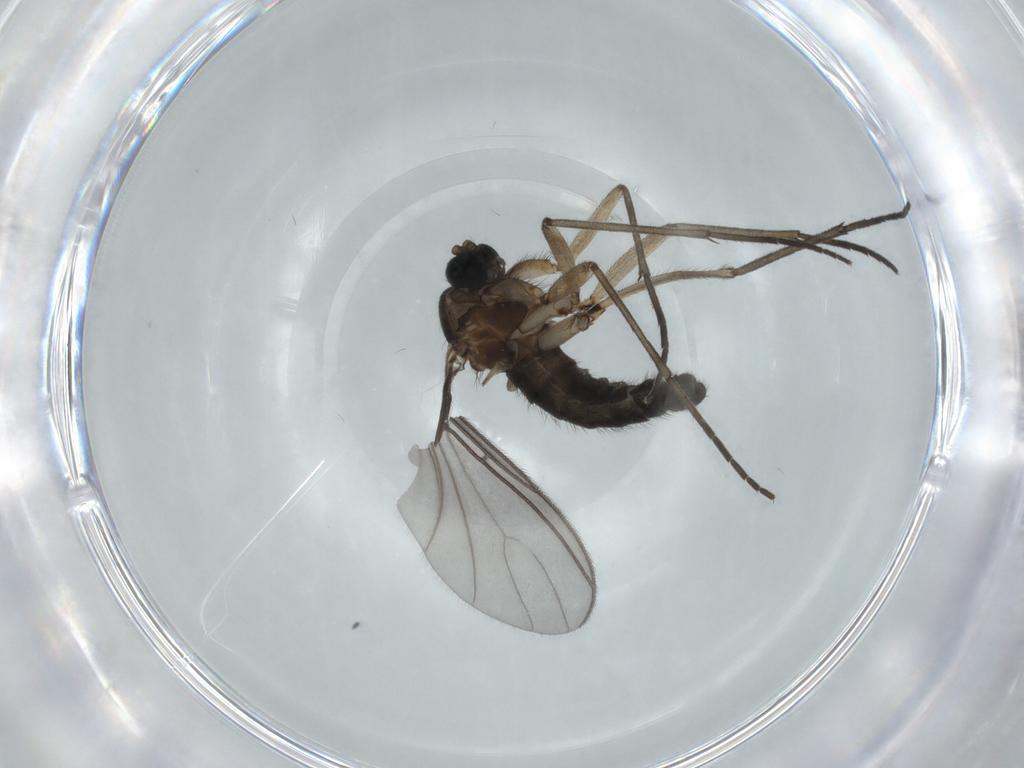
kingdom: Animalia
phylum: Arthropoda
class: Insecta
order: Diptera
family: Sciaridae
